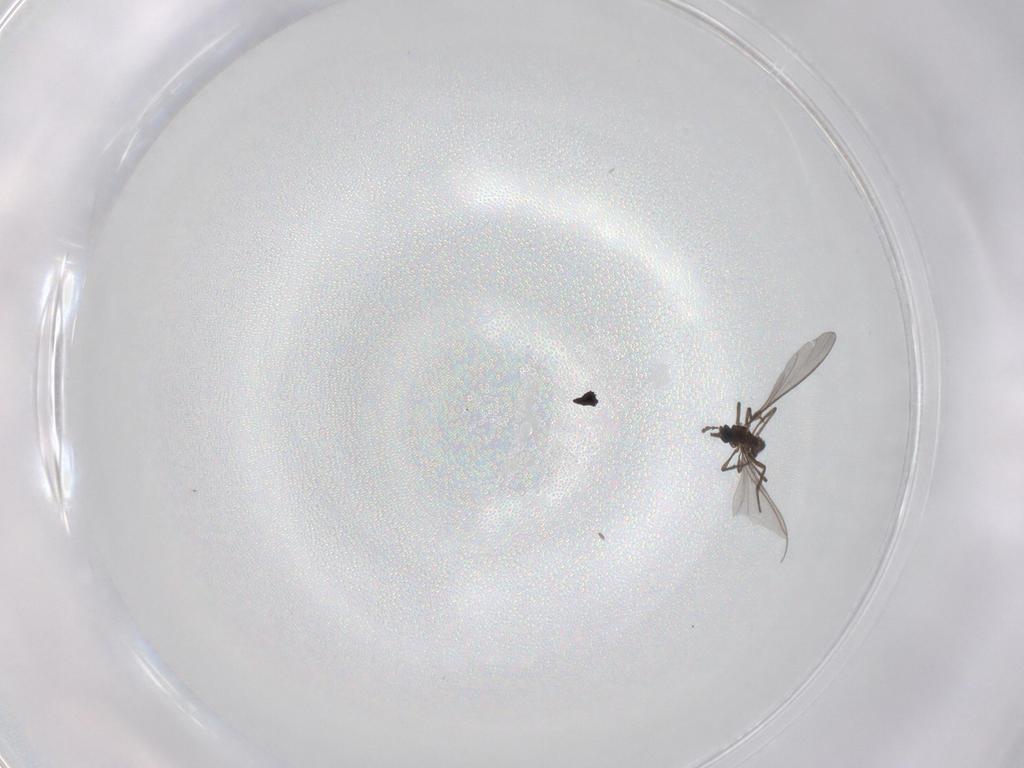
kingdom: Animalia
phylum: Arthropoda
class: Insecta
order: Diptera
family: Sciaridae
